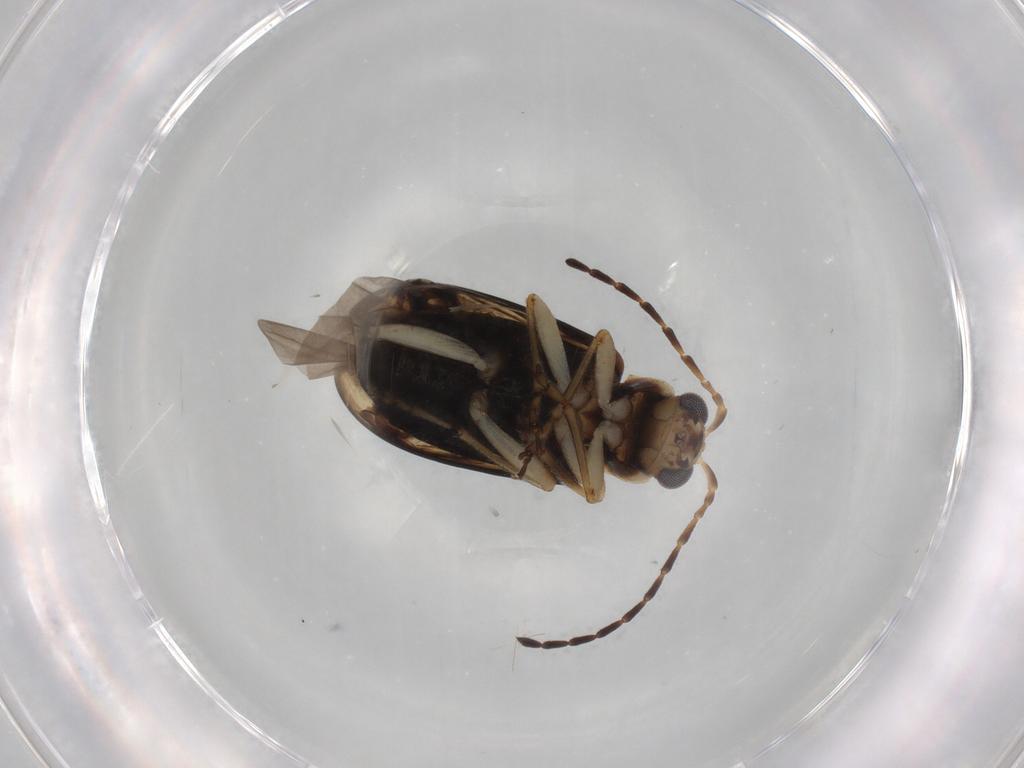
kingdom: Animalia
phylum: Arthropoda
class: Insecta
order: Coleoptera
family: Chrysomelidae
